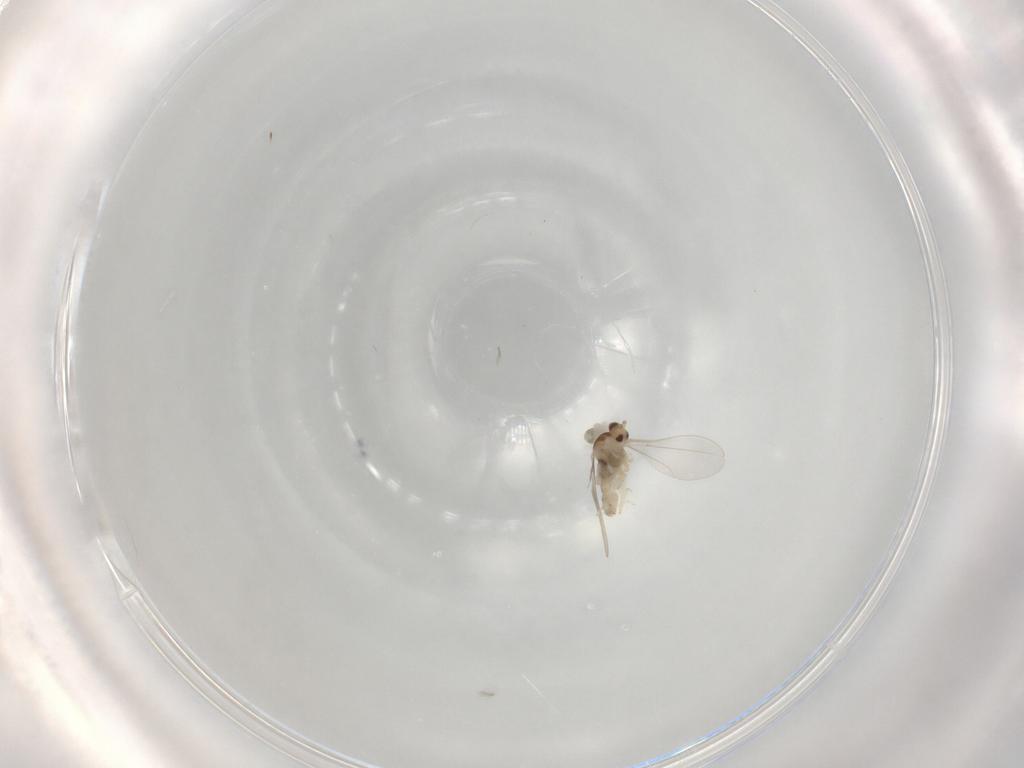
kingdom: Animalia
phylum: Arthropoda
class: Insecta
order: Diptera
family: Cecidomyiidae
